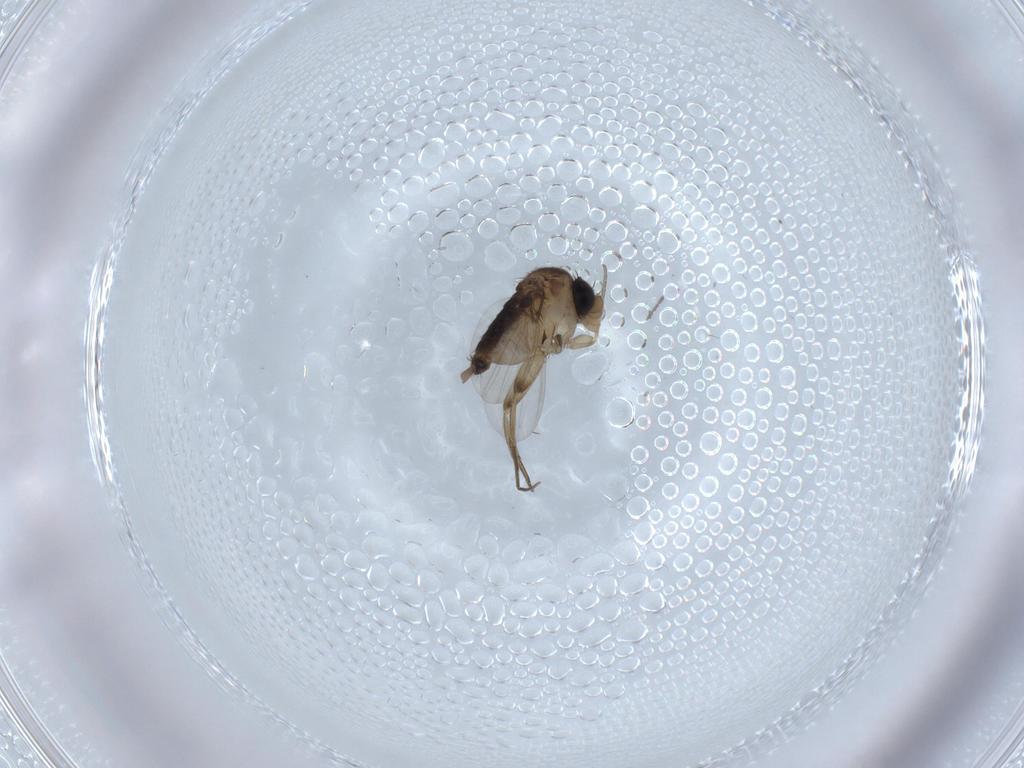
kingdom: Animalia
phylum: Arthropoda
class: Insecta
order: Diptera
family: Phoridae
